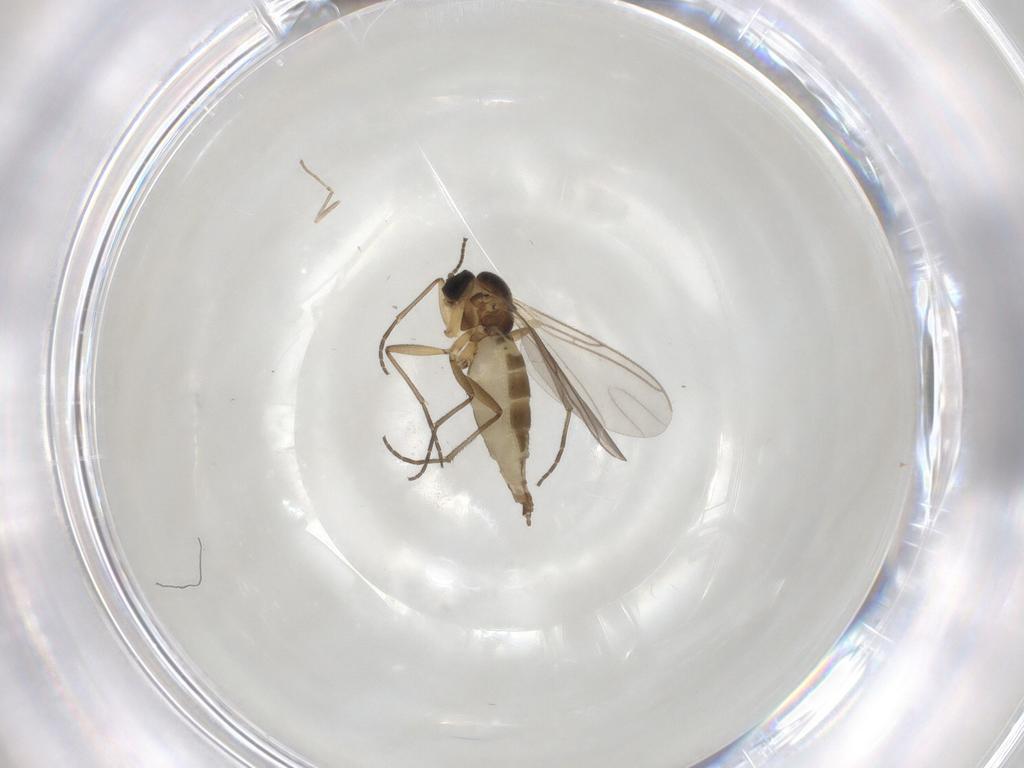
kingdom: Animalia
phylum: Arthropoda
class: Insecta
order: Diptera
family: Cecidomyiidae
